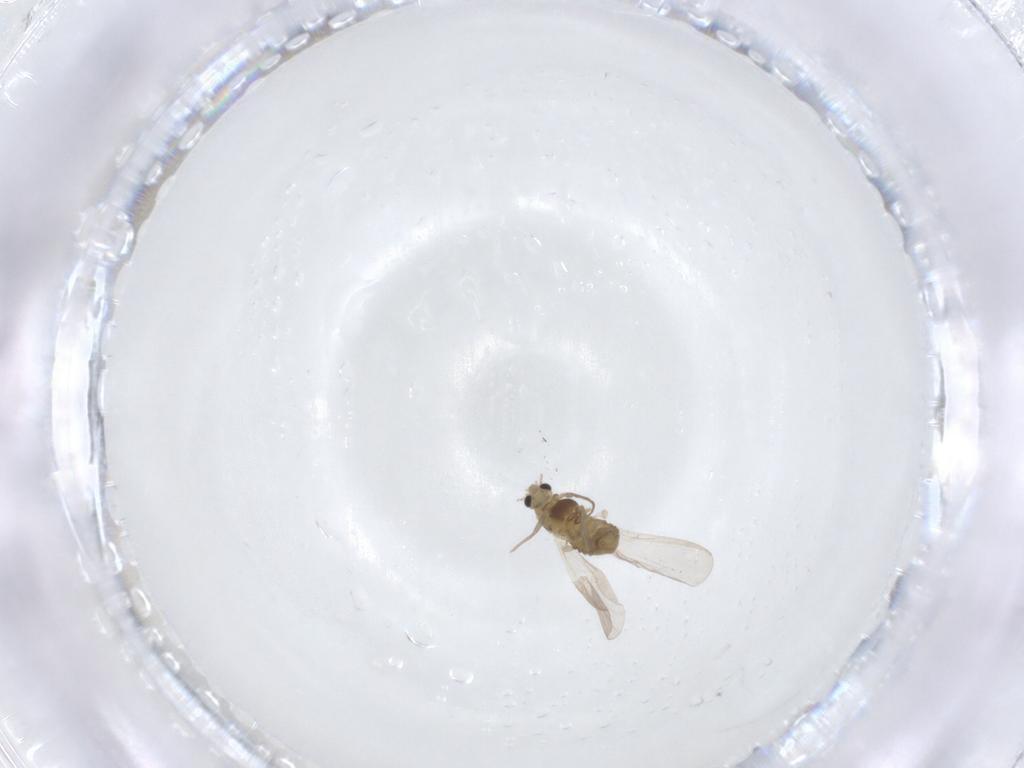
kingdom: Animalia
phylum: Arthropoda
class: Insecta
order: Diptera
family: Chironomidae
